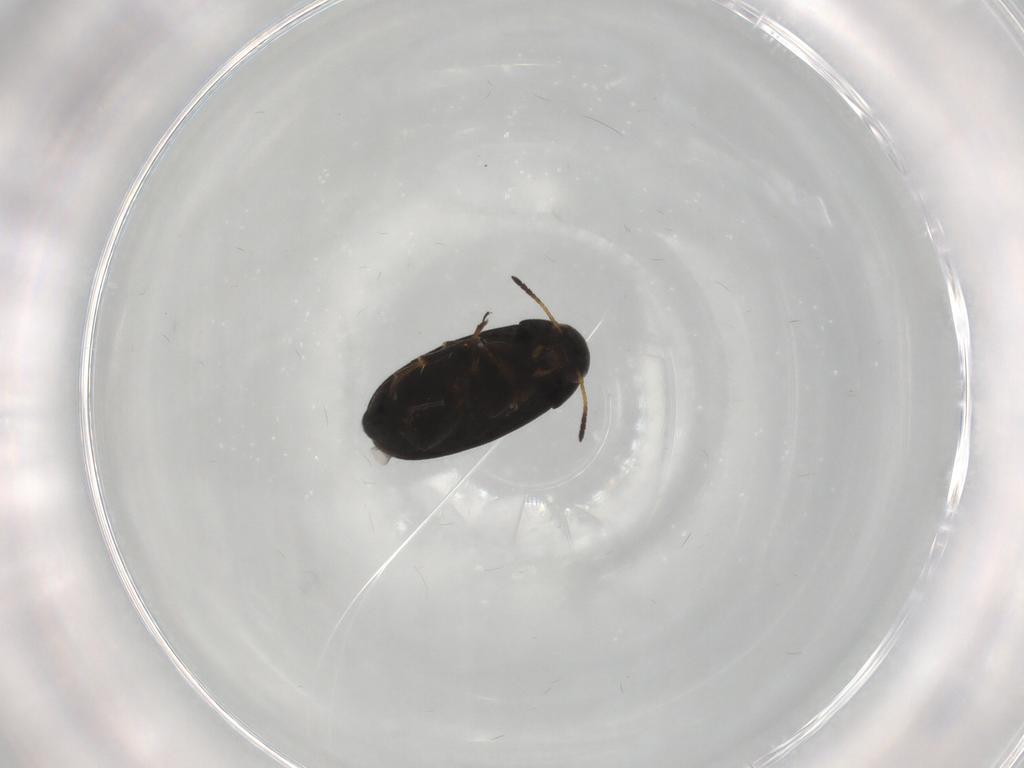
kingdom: Animalia
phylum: Arthropoda
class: Insecta
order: Coleoptera
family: Scraptiidae
